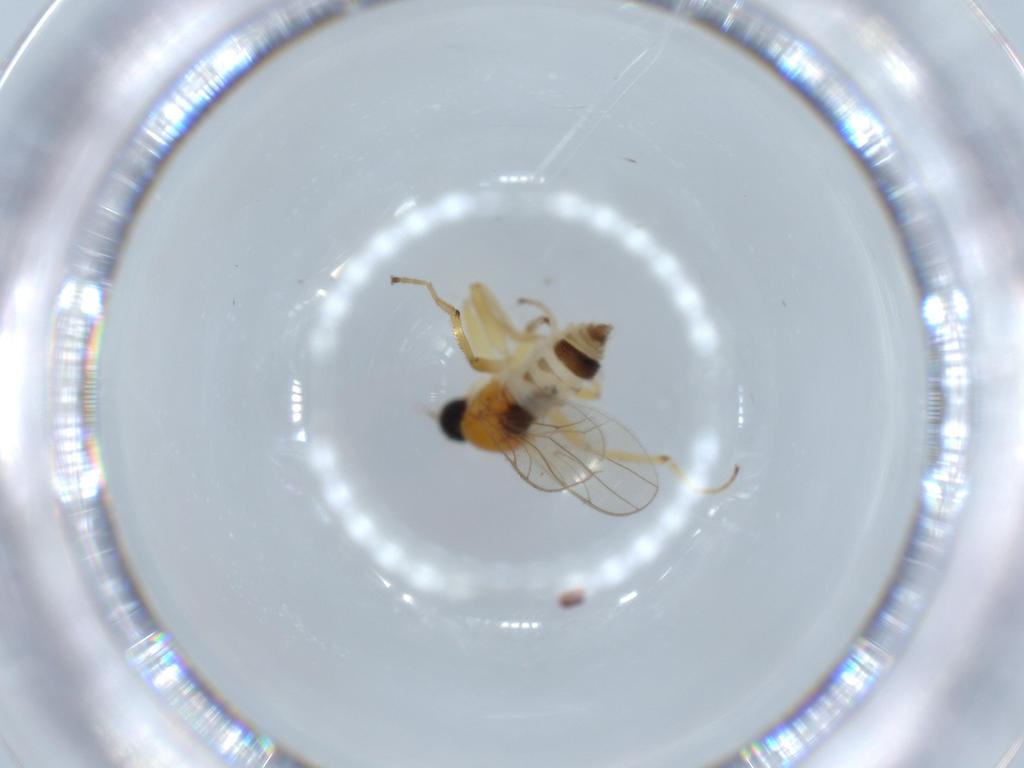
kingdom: Animalia
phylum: Arthropoda
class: Insecta
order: Diptera
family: Hybotidae
